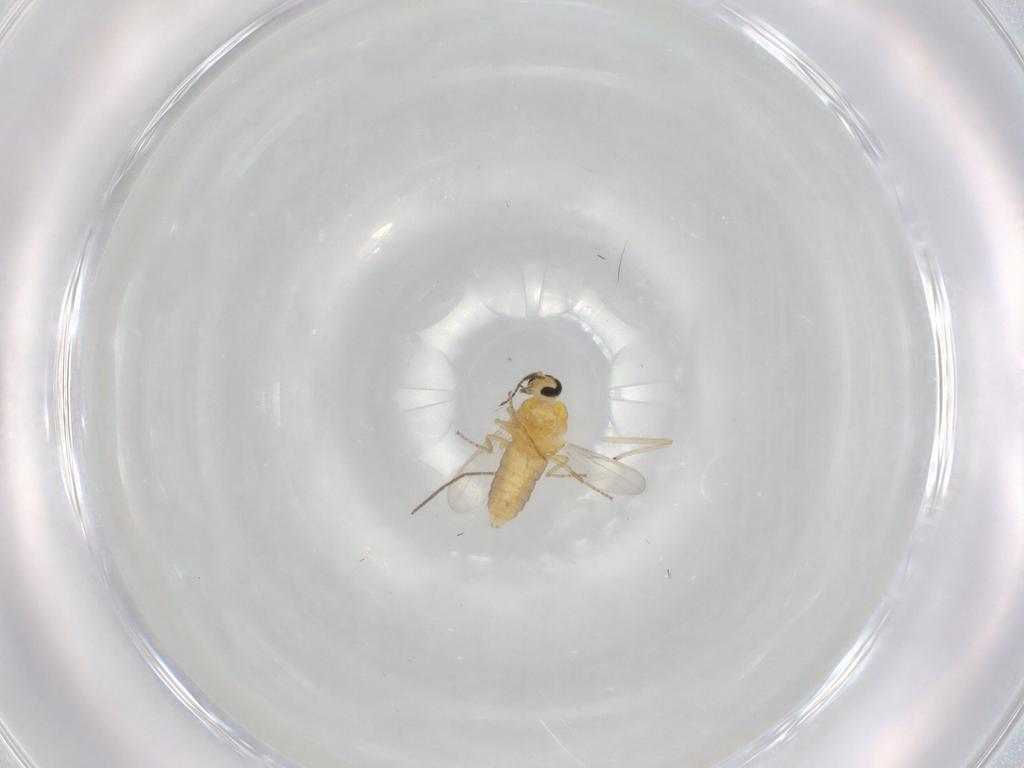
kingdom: Animalia
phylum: Arthropoda
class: Insecta
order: Diptera
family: Ceratopogonidae
